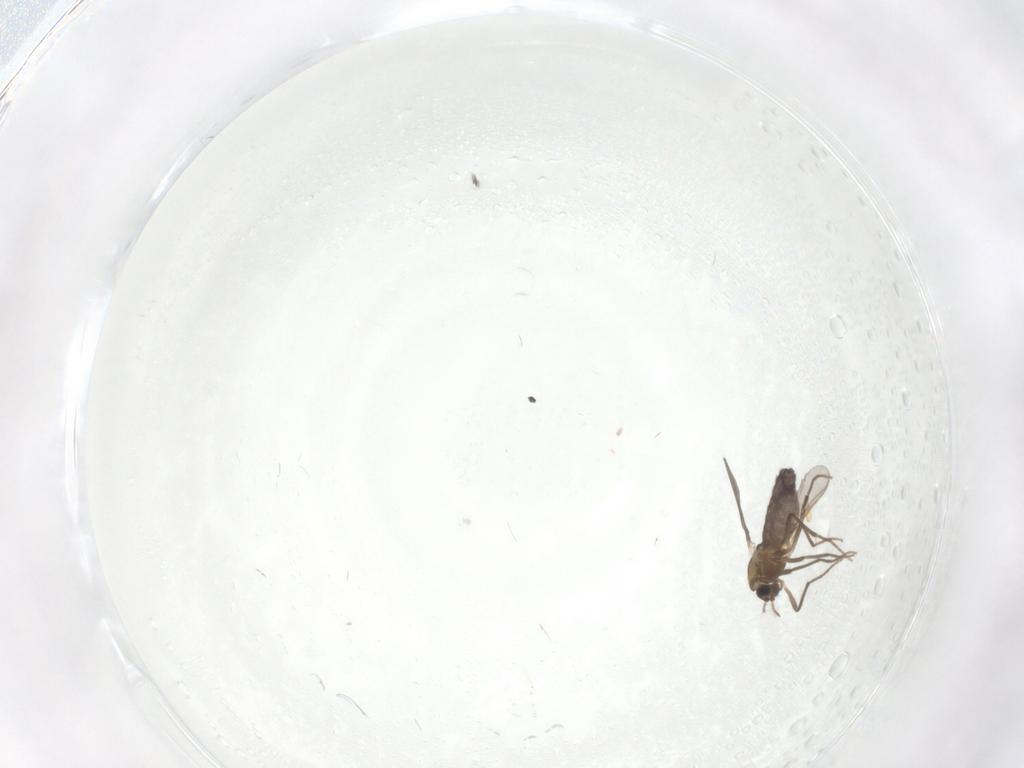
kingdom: Animalia
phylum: Arthropoda
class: Insecta
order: Diptera
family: Chironomidae
